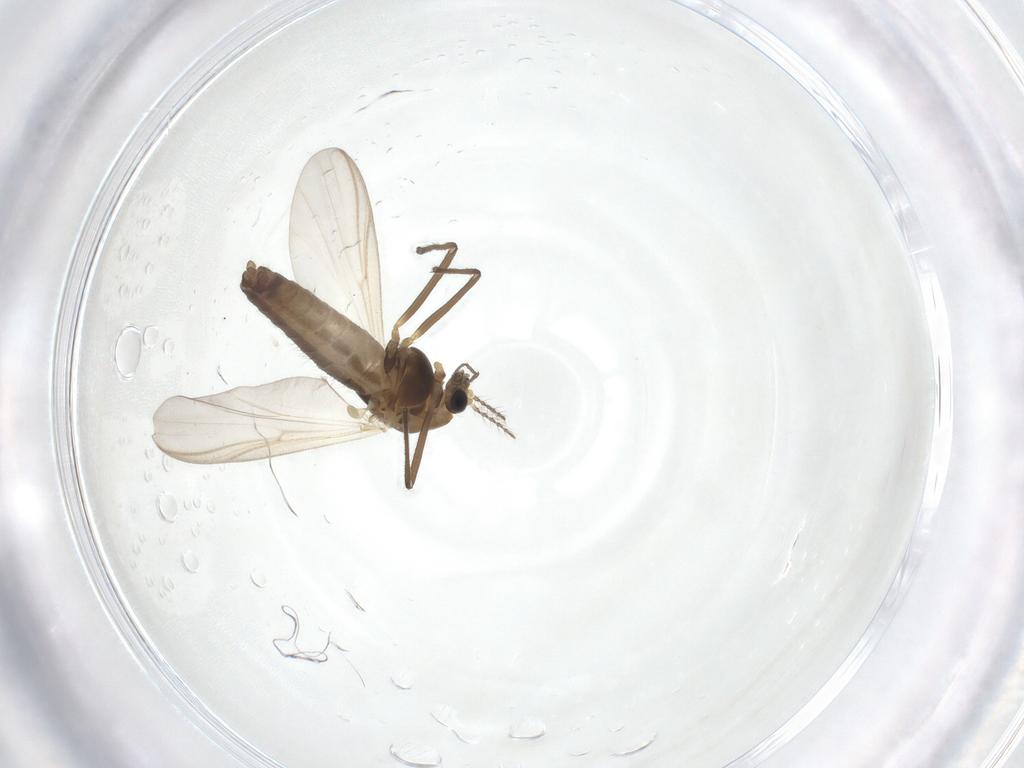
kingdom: Animalia
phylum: Arthropoda
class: Insecta
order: Diptera
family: Chironomidae
